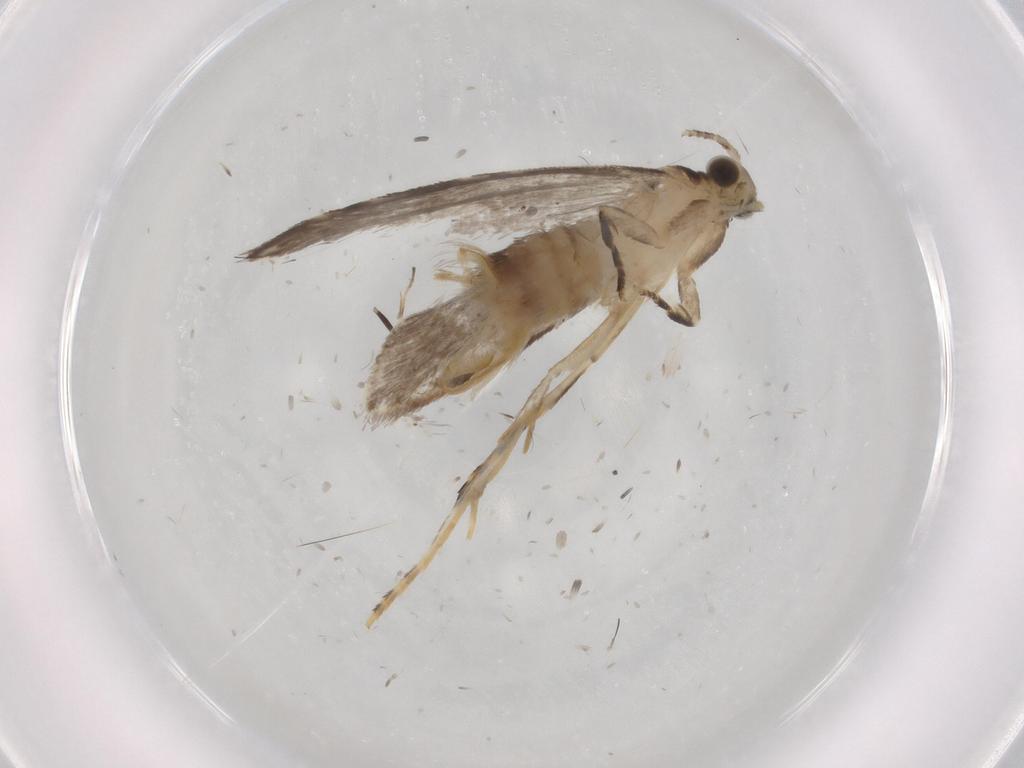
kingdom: Animalia
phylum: Arthropoda
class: Insecta
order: Lepidoptera
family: Tineidae
